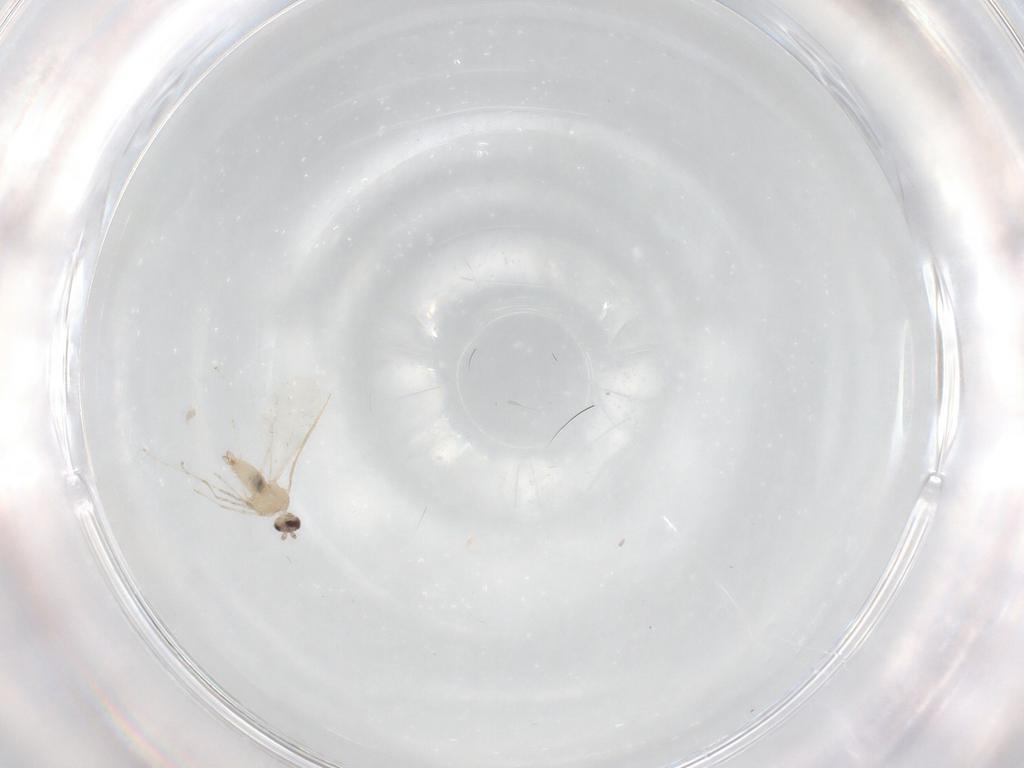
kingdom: Animalia
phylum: Arthropoda
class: Insecta
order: Diptera
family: Cecidomyiidae
